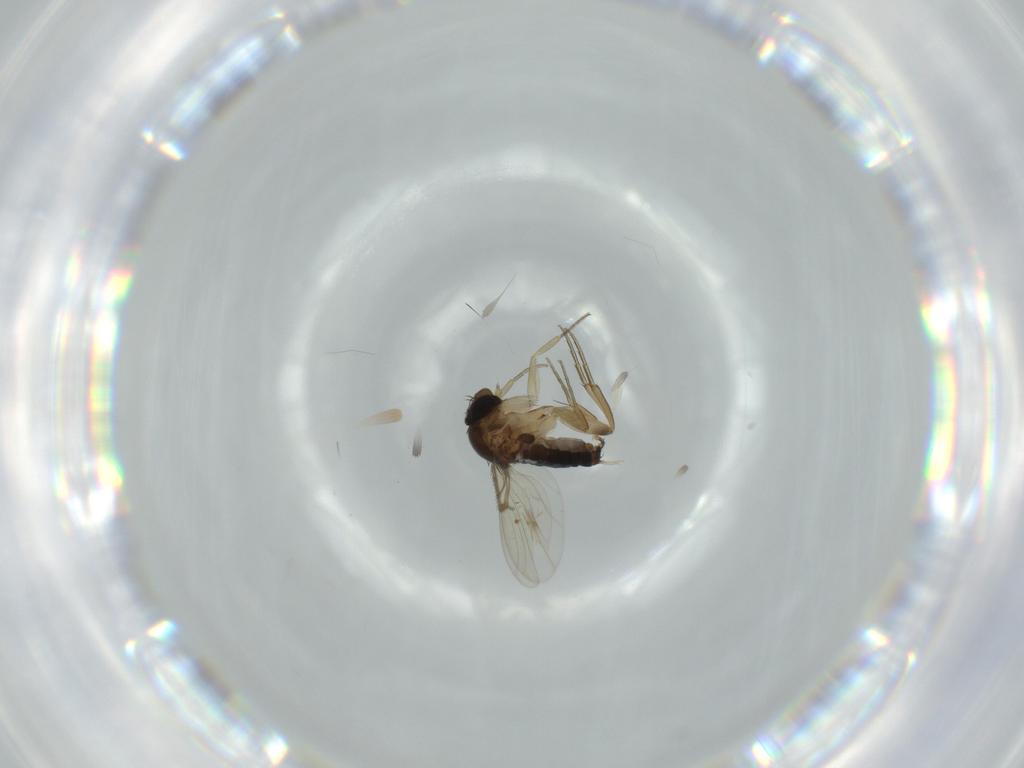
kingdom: Animalia
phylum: Arthropoda
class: Insecta
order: Diptera
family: Phoridae
